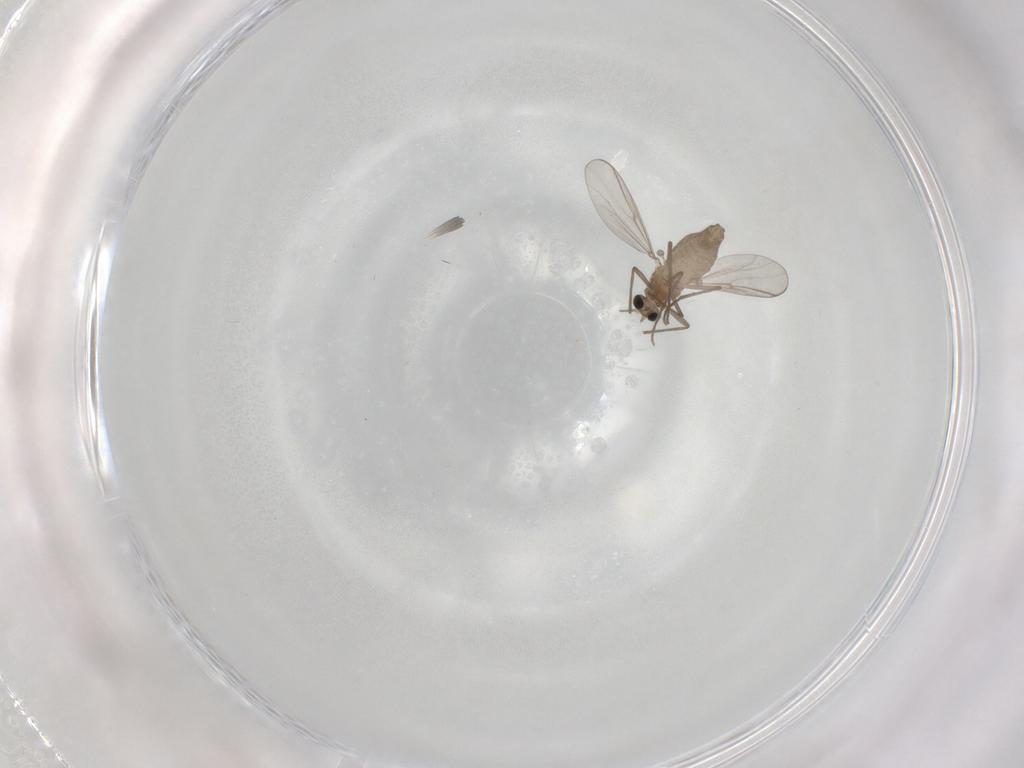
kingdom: Animalia
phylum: Arthropoda
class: Insecta
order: Diptera
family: Chironomidae
